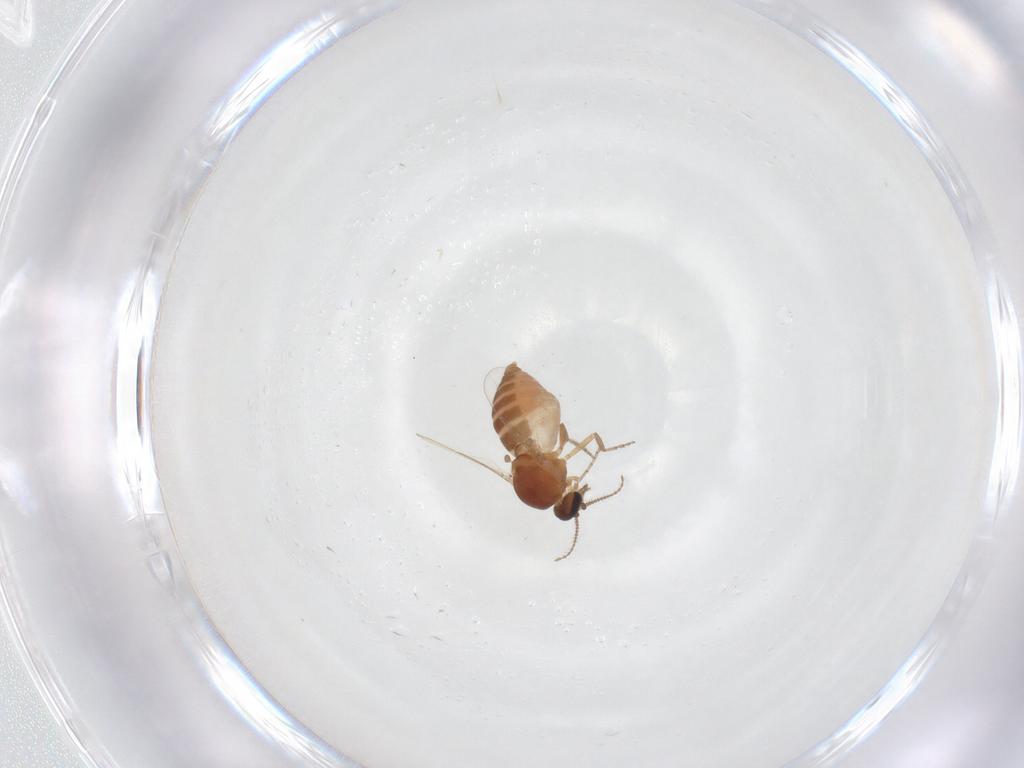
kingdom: Animalia
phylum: Arthropoda
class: Insecta
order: Diptera
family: Ceratopogonidae
